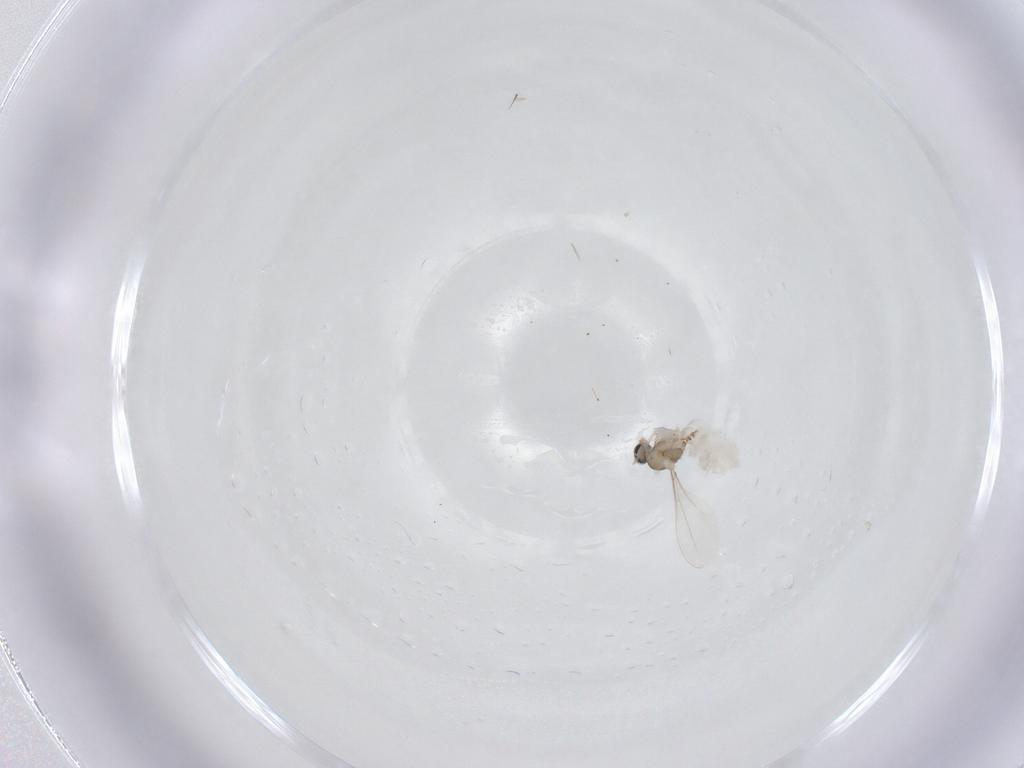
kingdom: Animalia
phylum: Arthropoda
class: Insecta
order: Diptera
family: Cecidomyiidae
